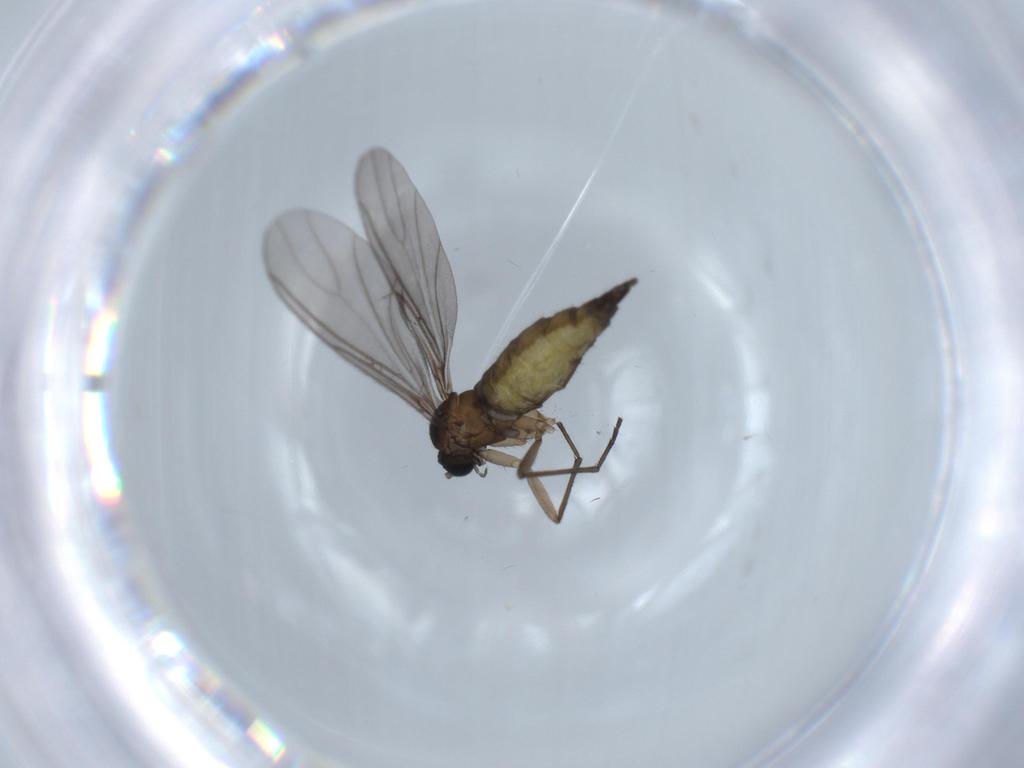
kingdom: Animalia
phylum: Arthropoda
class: Insecta
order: Diptera
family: Sciaridae
